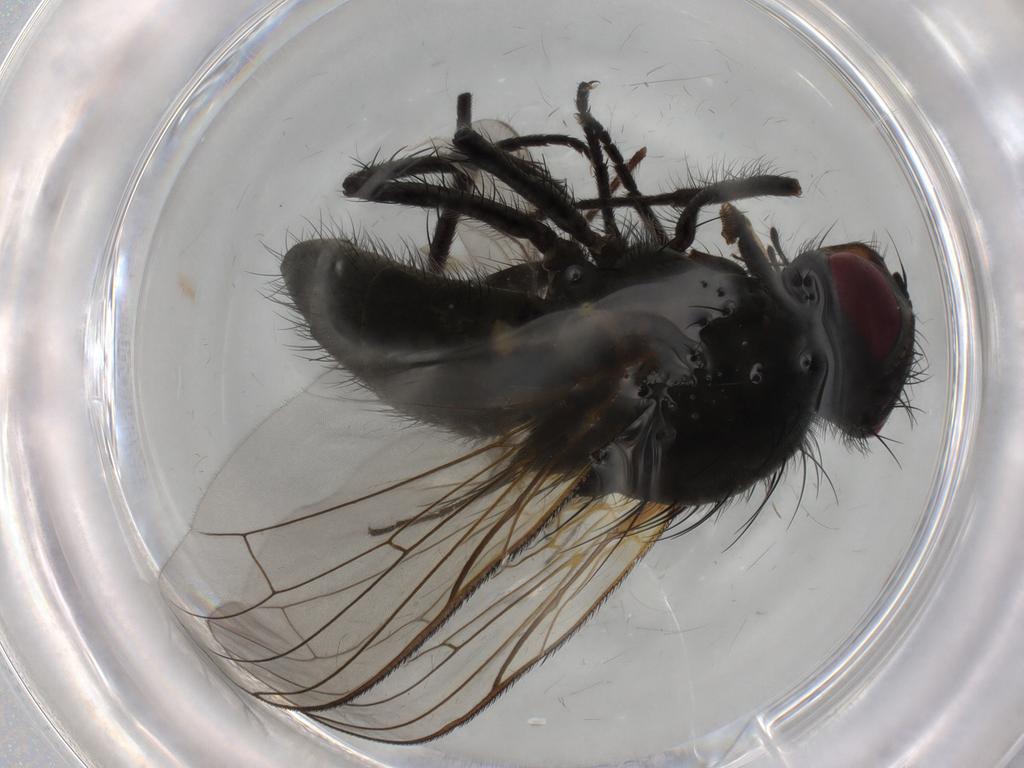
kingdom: Animalia
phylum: Arthropoda
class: Insecta
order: Diptera
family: Anthomyiidae
